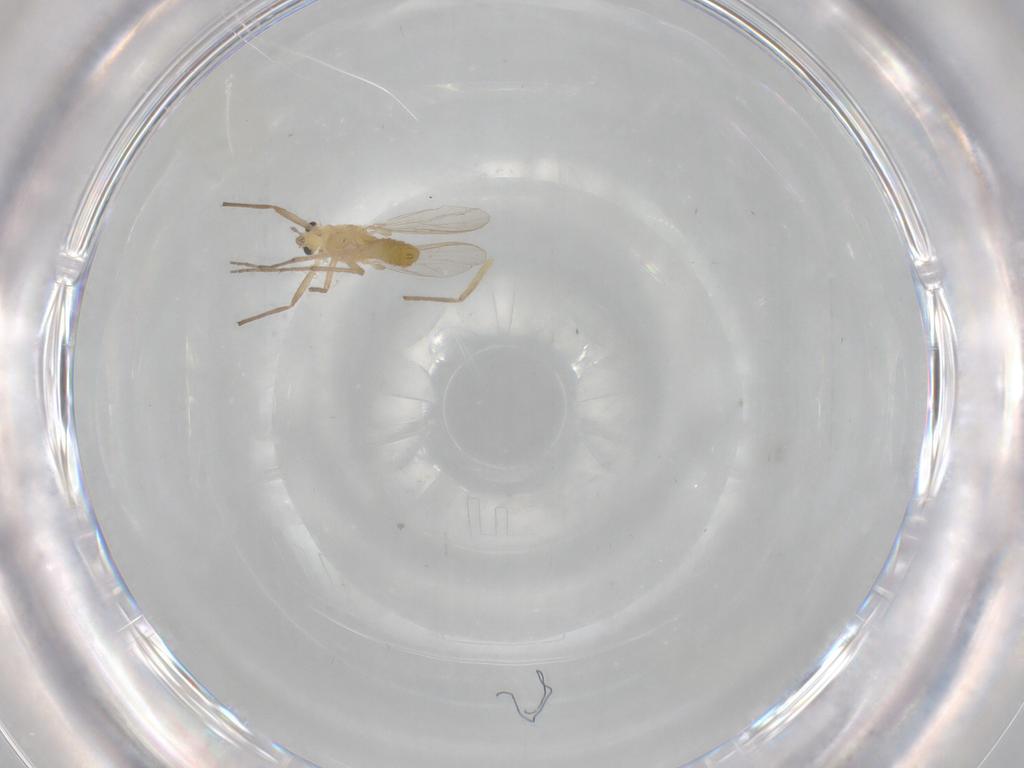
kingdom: Animalia
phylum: Arthropoda
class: Insecta
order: Diptera
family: Chironomidae
